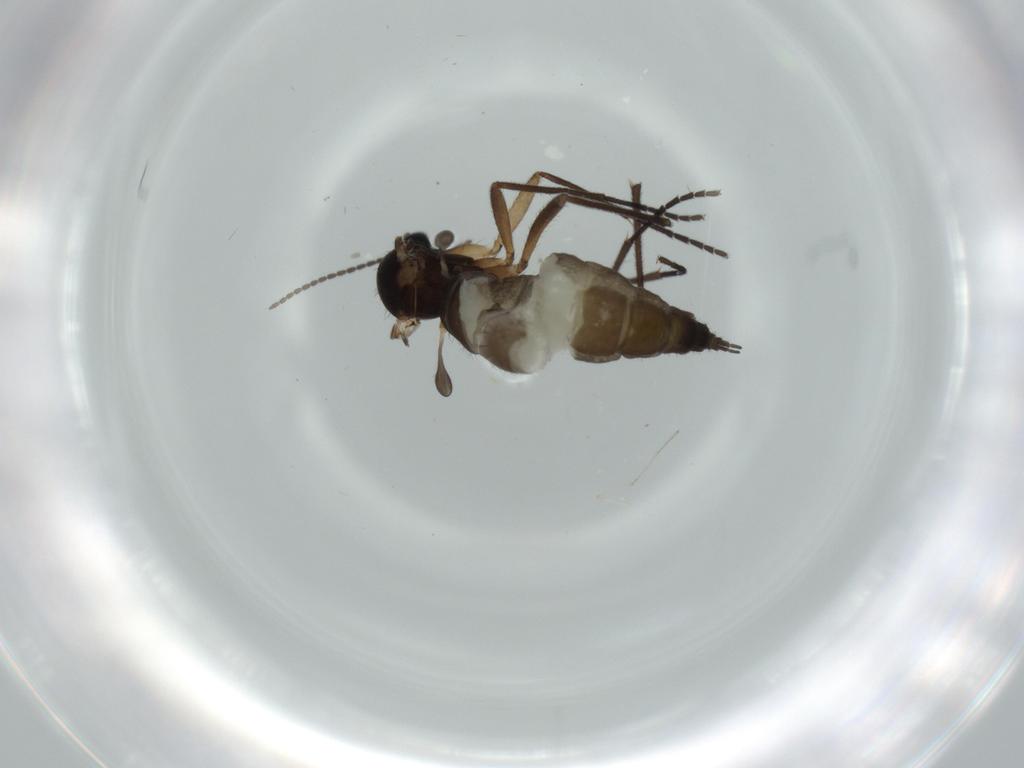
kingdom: Animalia
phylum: Arthropoda
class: Insecta
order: Diptera
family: Sciaridae
